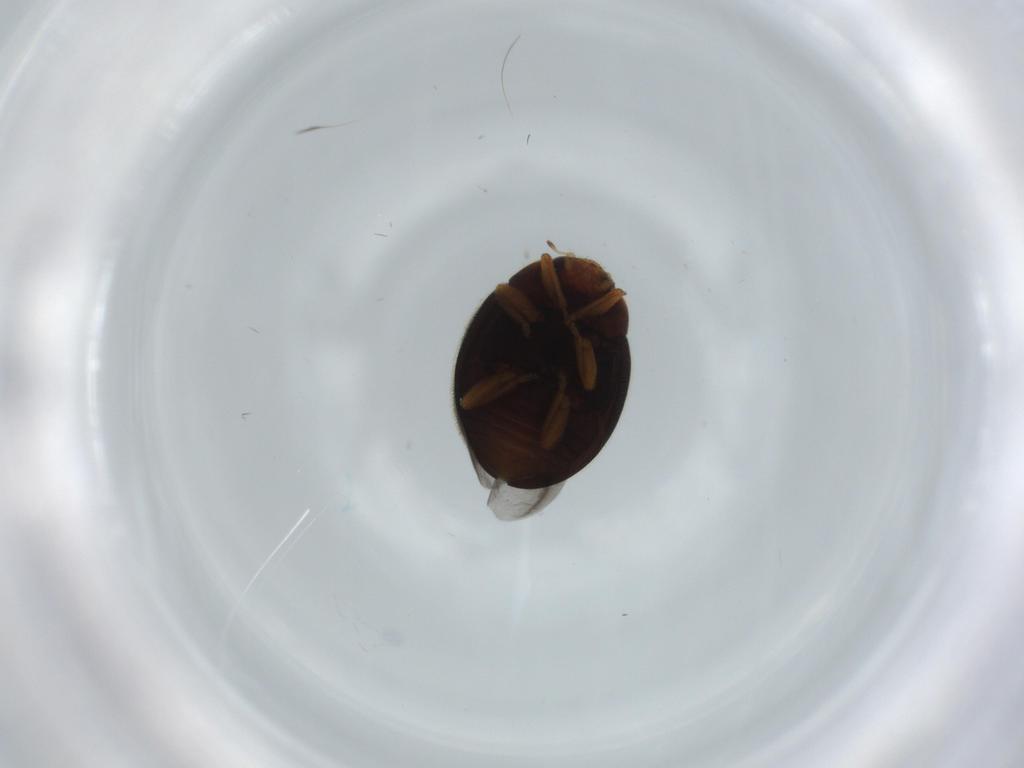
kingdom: Animalia
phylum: Arthropoda
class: Insecta
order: Coleoptera
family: Coccinellidae
